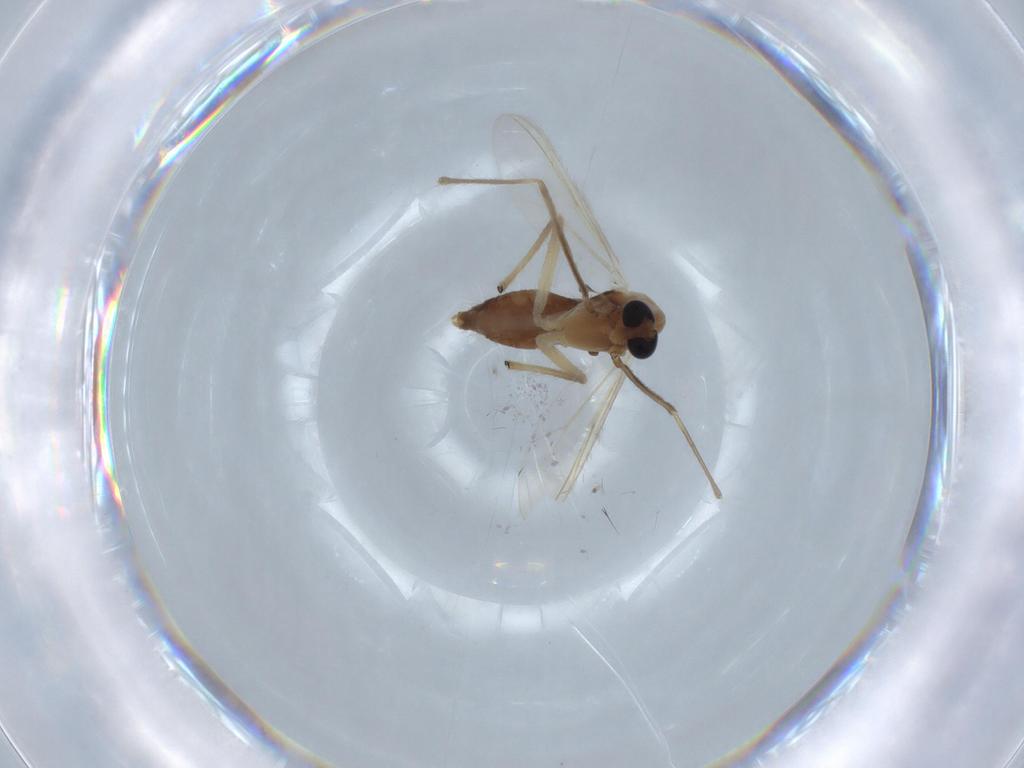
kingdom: Animalia
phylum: Arthropoda
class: Insecta
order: Diptera
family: Chironomidae
